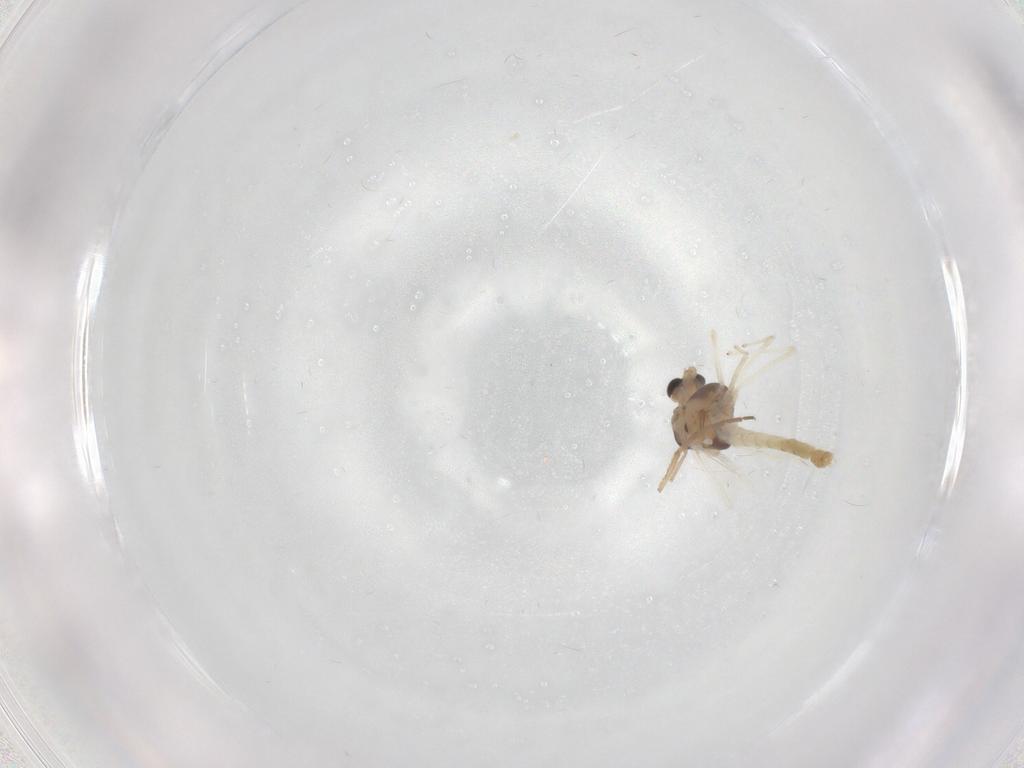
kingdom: Animalia
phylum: Arthropoda
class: Insecta
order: Diptera
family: Chironomidae
